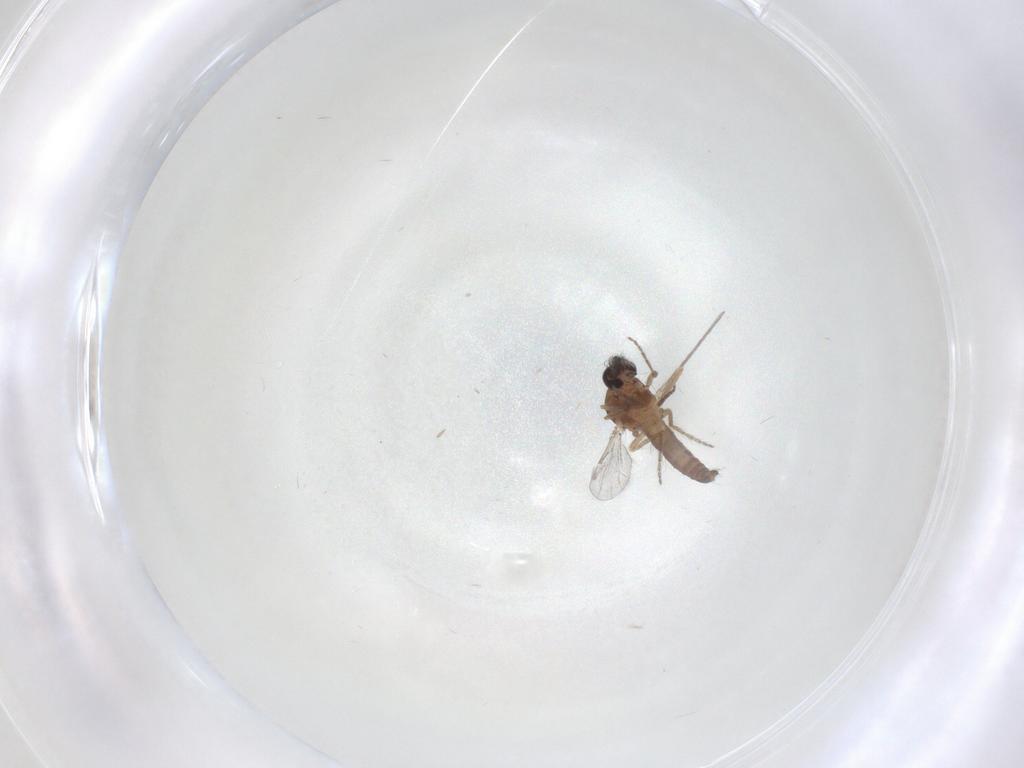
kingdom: Animalia
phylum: Arthropoda
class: Insecta
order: Diptera
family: Ceratopogonidae
